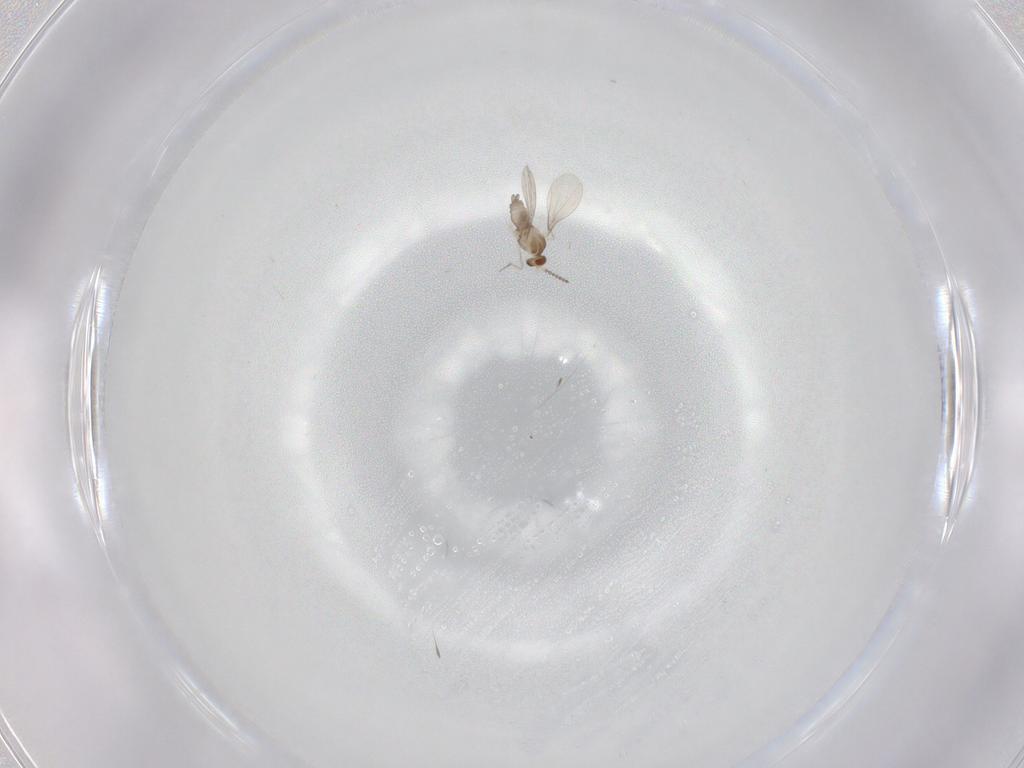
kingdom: Animalia
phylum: Arthropoda
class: Insecta
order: Diptera
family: Cecidomyiidae
